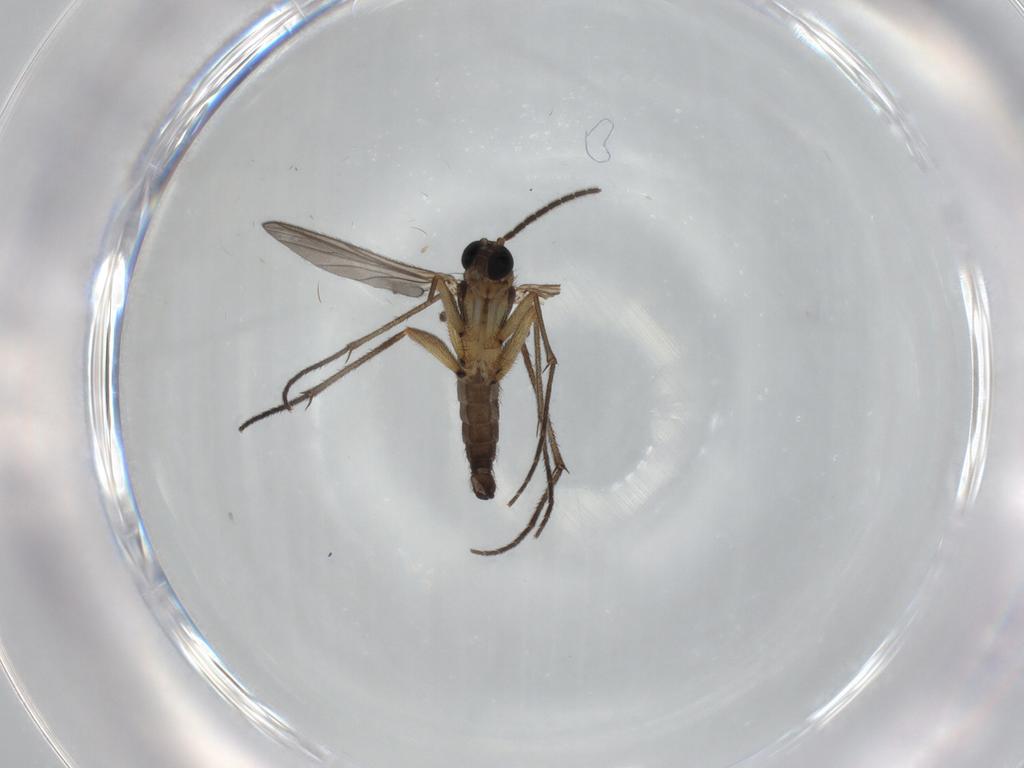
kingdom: Animalia
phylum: Arthropoda
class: Insecta
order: Diptera
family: Sciaridae
